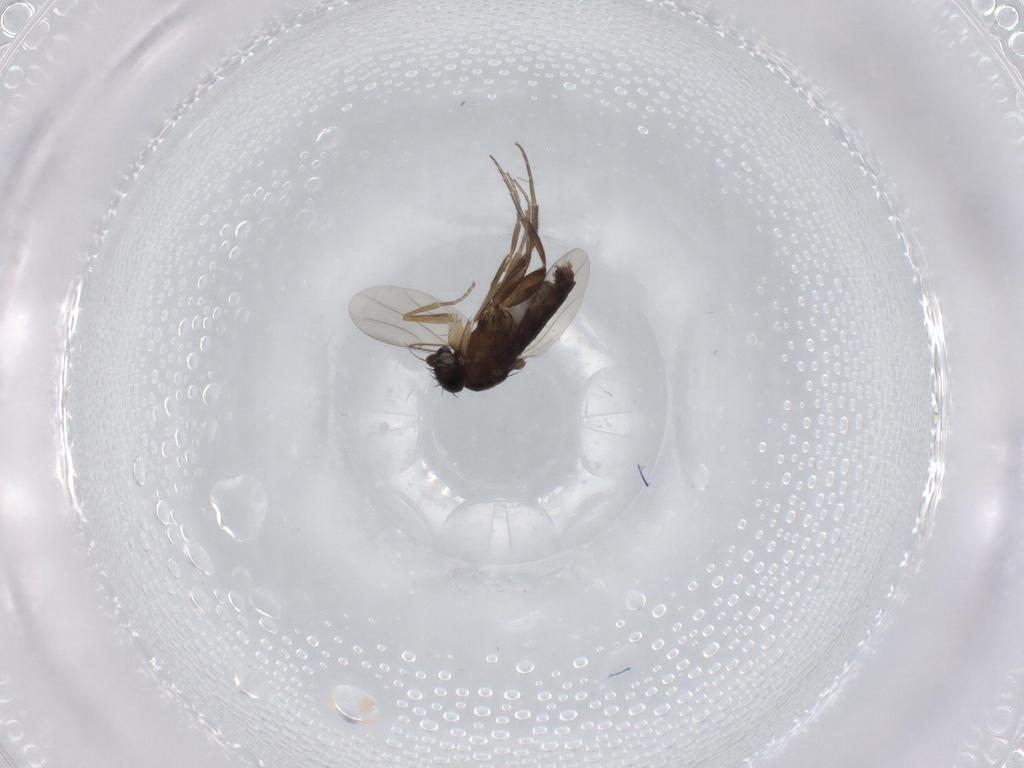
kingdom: Animalia
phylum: Arthropoda
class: Insecta
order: Diptera
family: Phoridae
